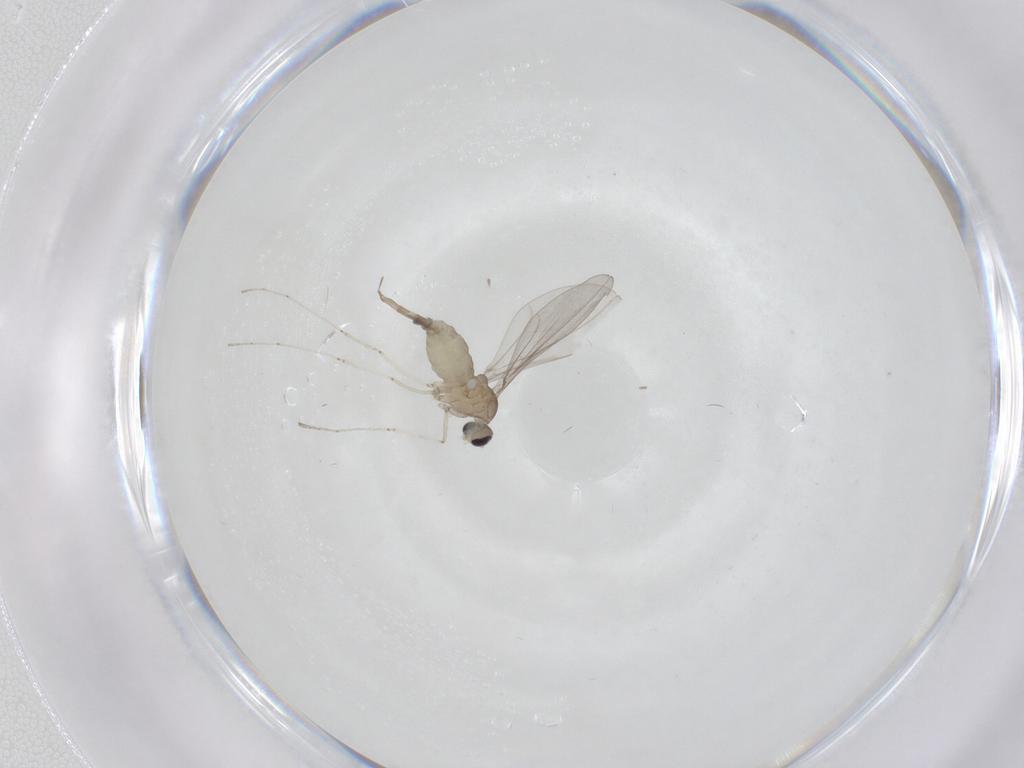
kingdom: Animalia
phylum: Arthropoda
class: Insecta
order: Diptera
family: Cecidomyiidae
